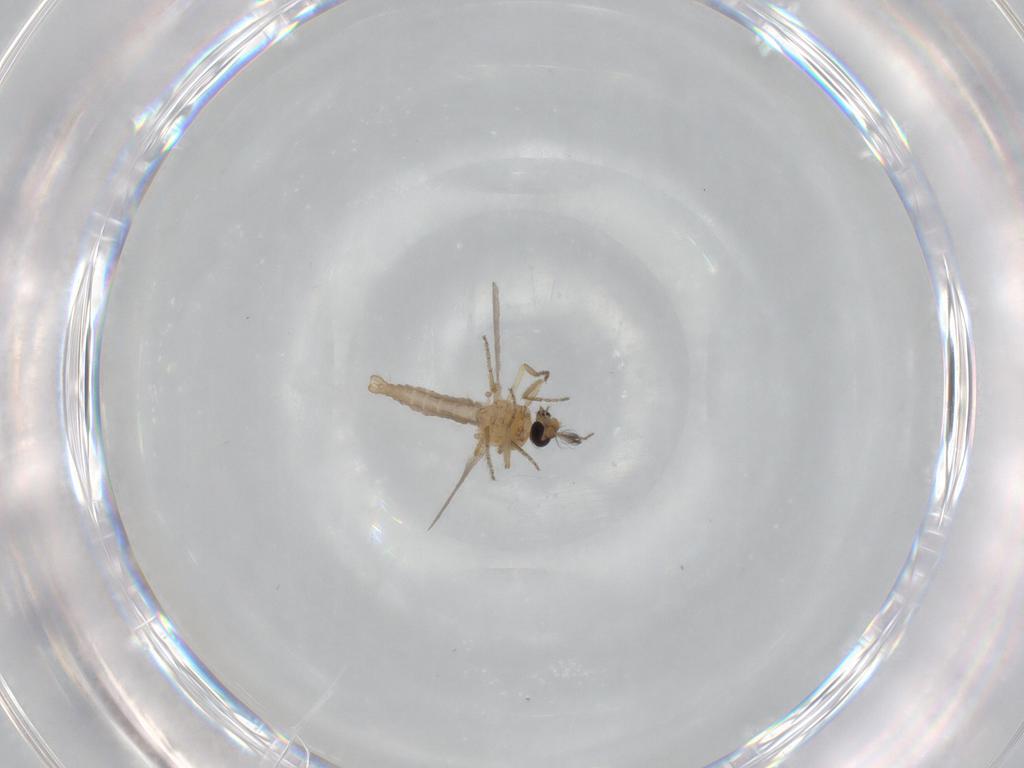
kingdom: Animalia
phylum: Arthropoda
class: Insecta
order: Diptera
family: Ceratopogonidae
